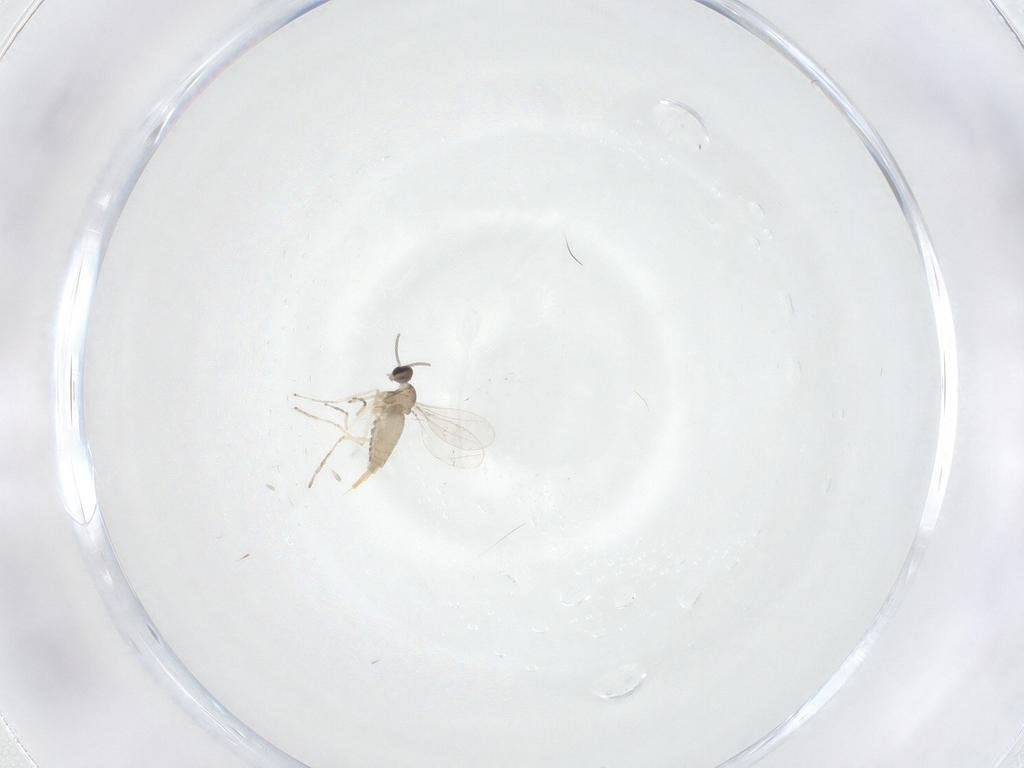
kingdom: Animalia
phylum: Arthropoda
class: Insecta
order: Diptera
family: Cecidomyiidae
